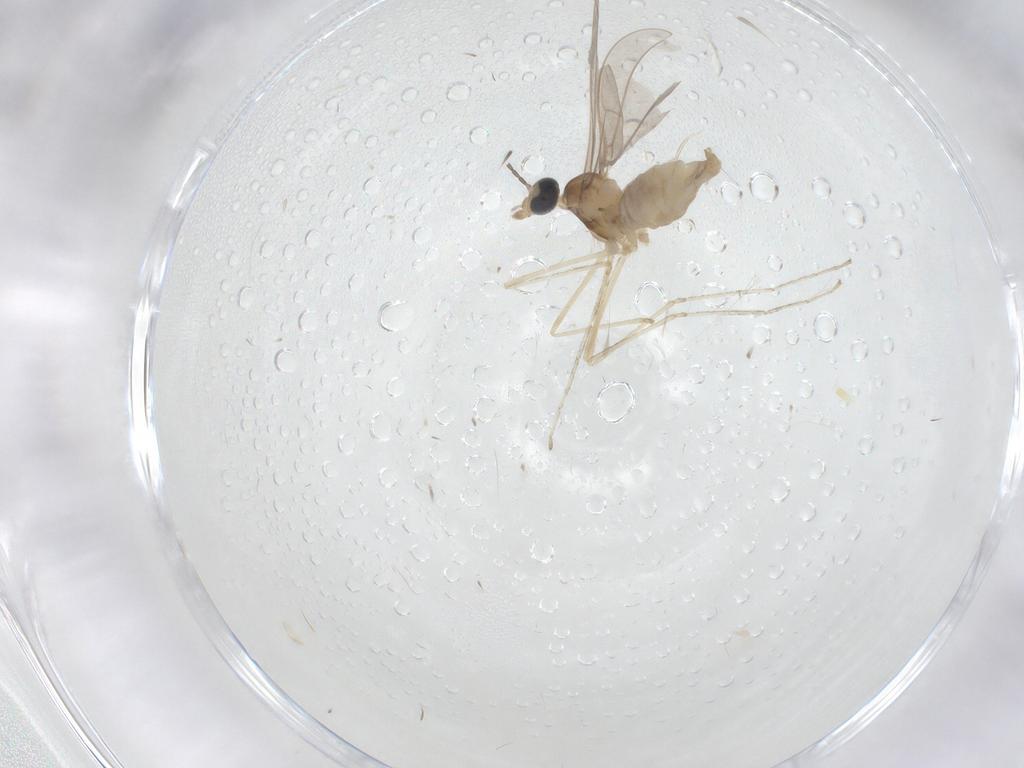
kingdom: Animalia
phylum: Arthropoda
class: Insecta
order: Diptera
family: Cecidomyiidae
